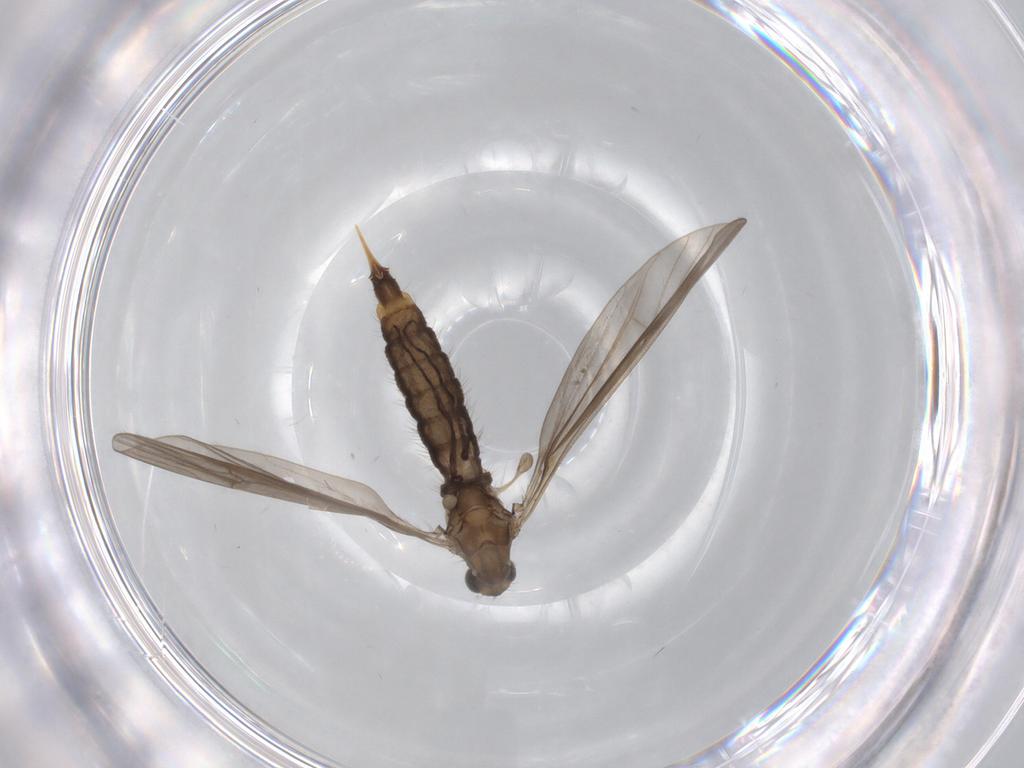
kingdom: Animalia
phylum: Arthropoda
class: Insecta
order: Diptera
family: Limoniidae
